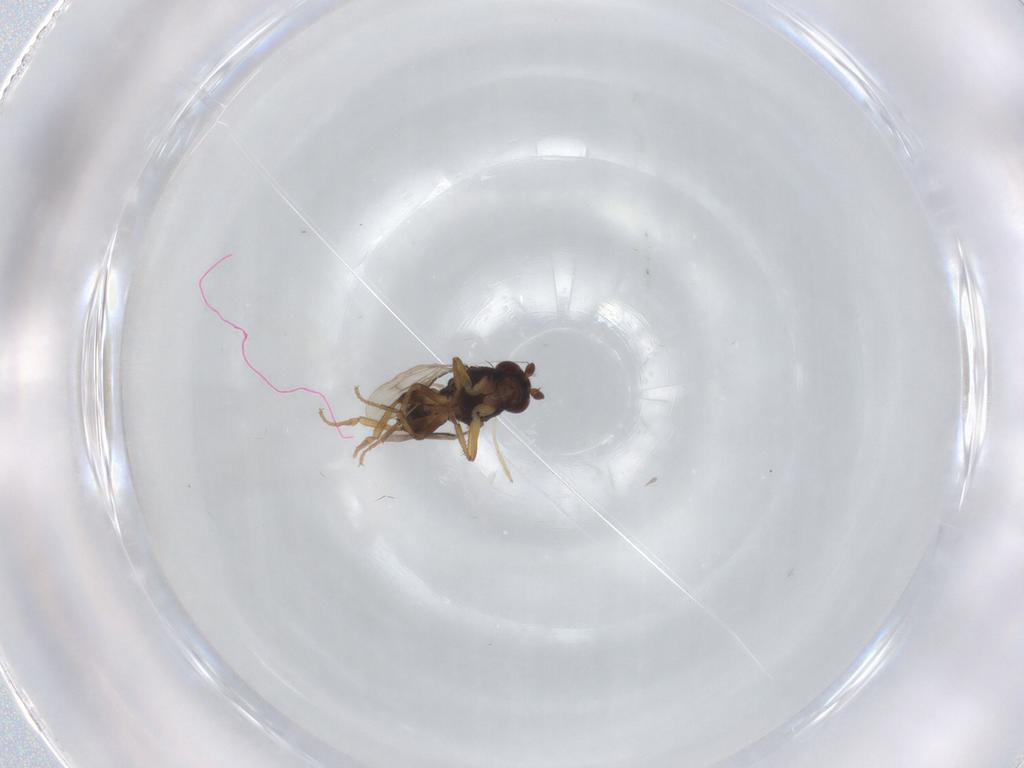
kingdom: Animalia
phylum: Arthropoda
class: Insecta
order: Diptera
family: Sphaeroceridae
